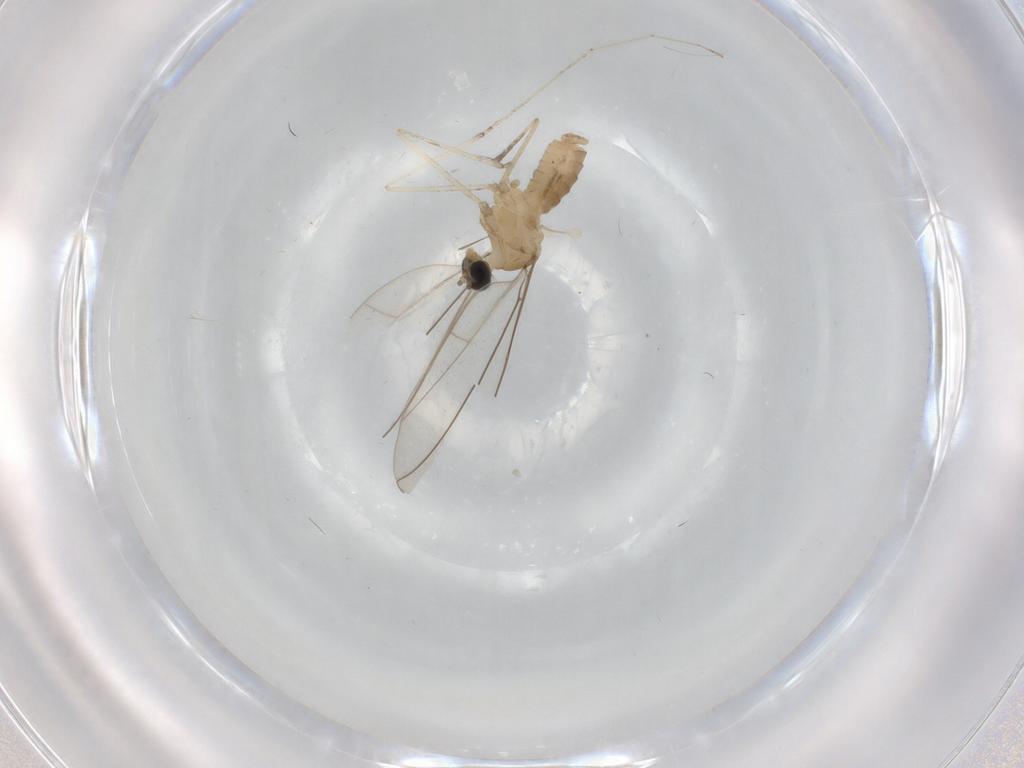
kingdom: Animalia
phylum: Arthropoda
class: Insecta
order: Diptera
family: Cecidomyiidae
